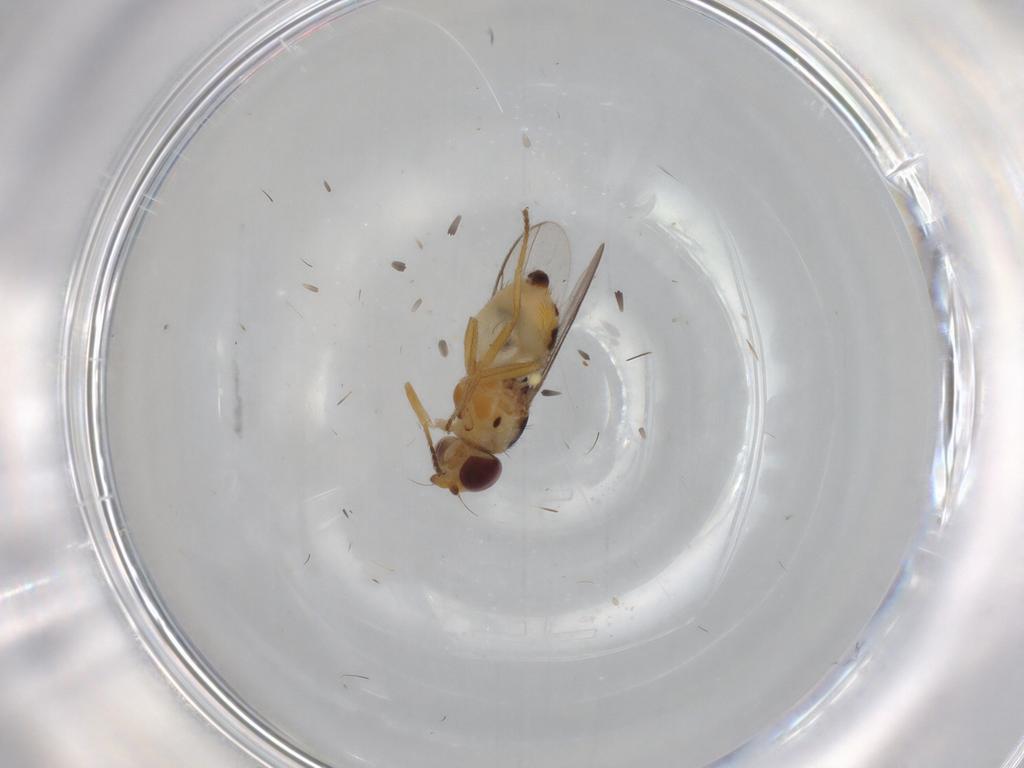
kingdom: Animalia
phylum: Arthropoda
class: Insecta
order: Diptera
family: Chloropidae
